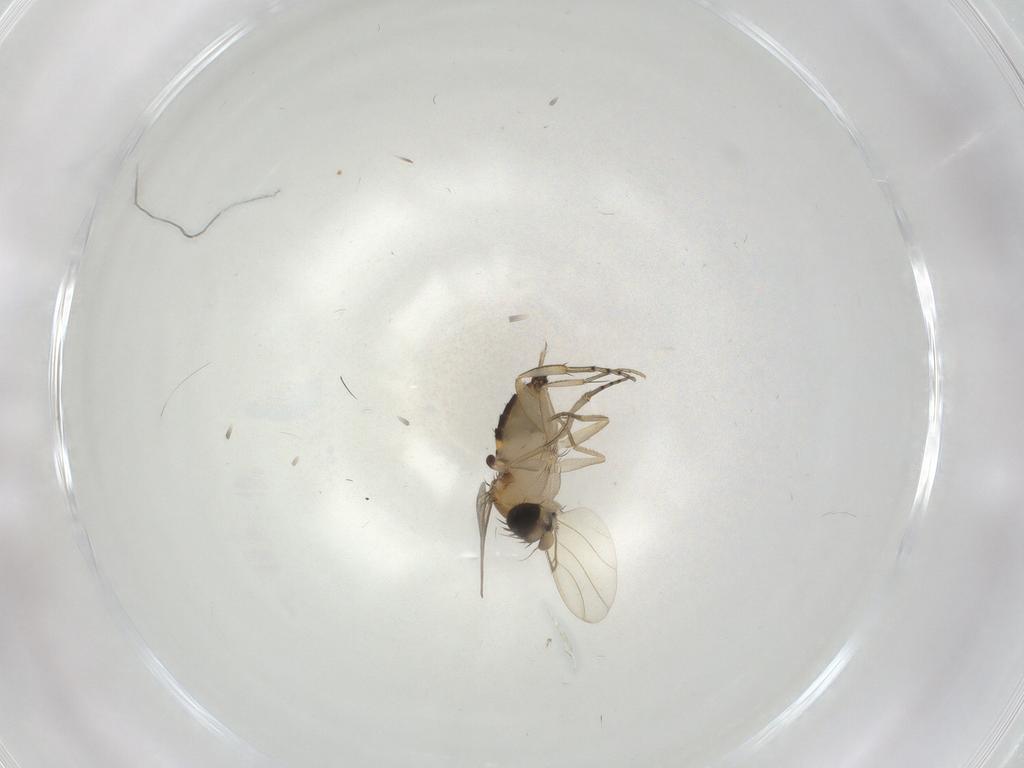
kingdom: Animalia
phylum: Arthropoda
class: Insecta
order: Diptera
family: Phoridae
